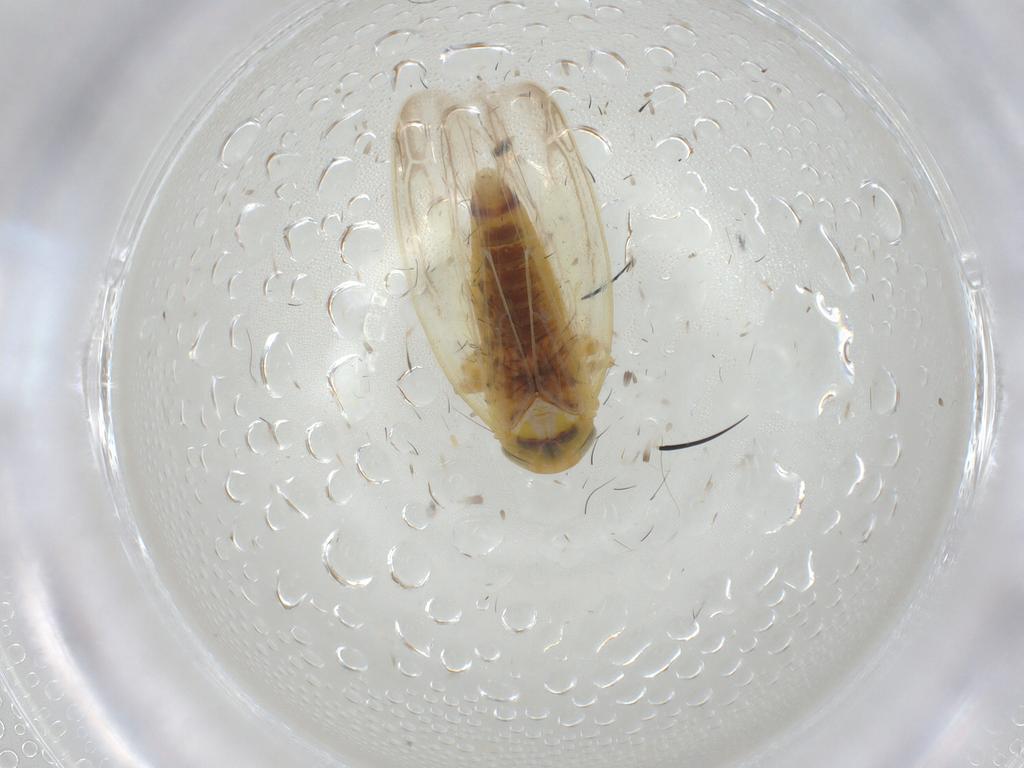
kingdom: Animalia
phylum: Arthropoda
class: Insecta
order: Hemiptera
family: Cicadellidae
